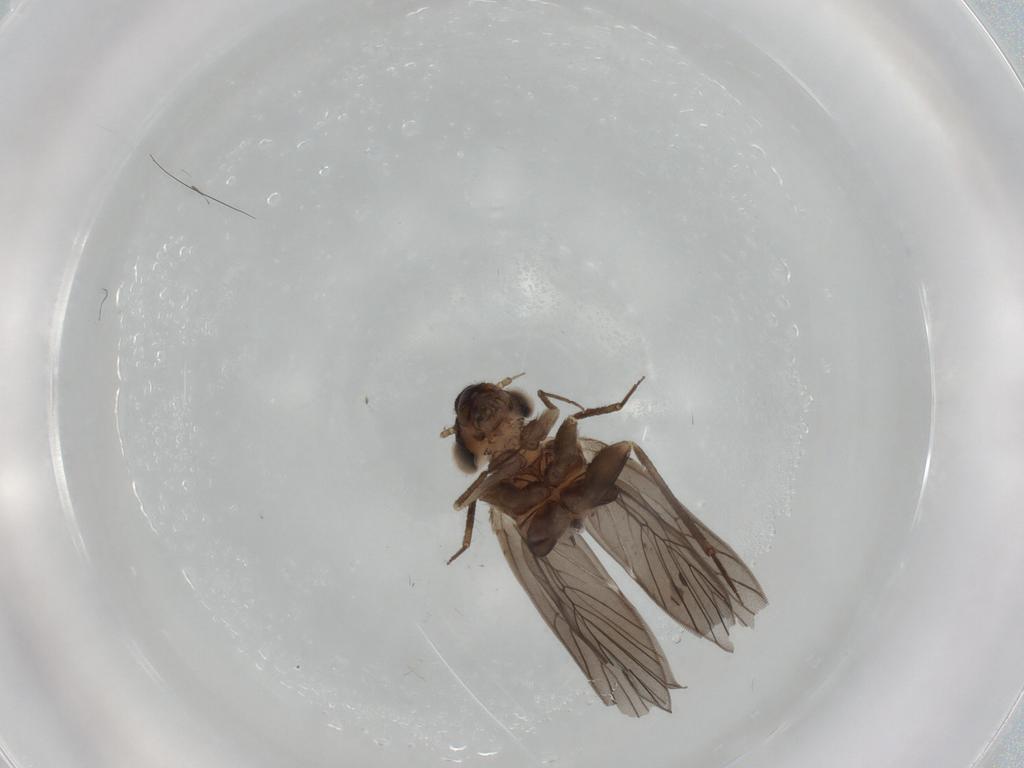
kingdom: Animalia
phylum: Arthropoda
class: Insecta
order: Psocodea
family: Lepidopsocidae
